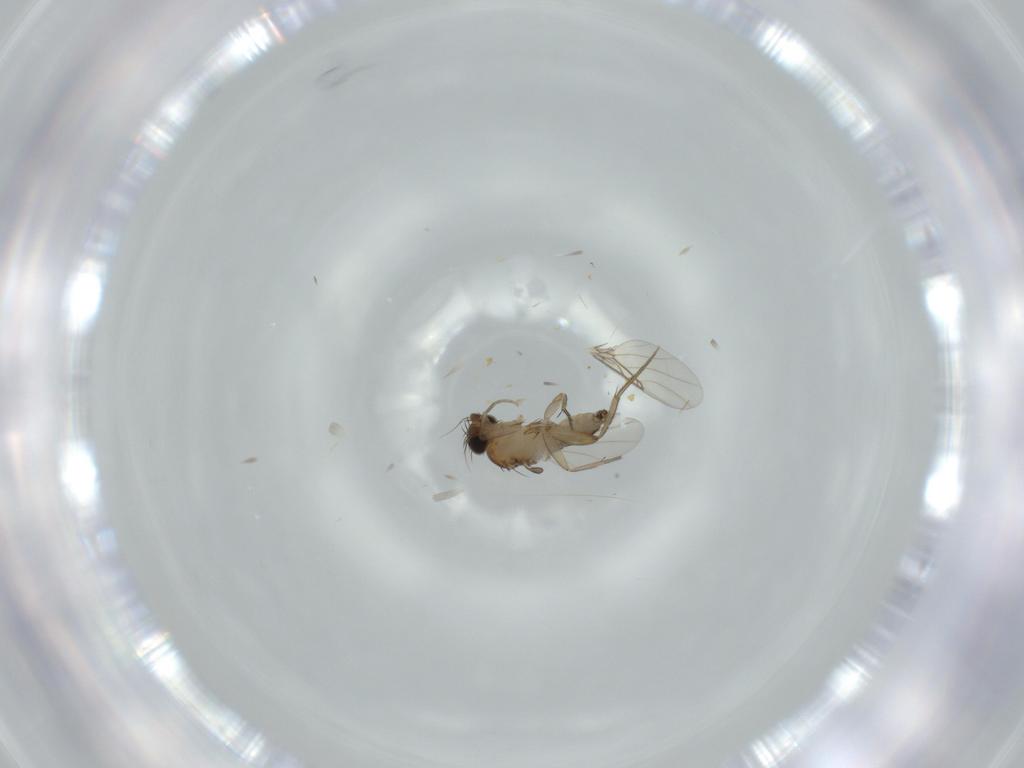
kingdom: Animalia
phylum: Arthropoda
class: Insecta
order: Diptera
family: Phoridae
